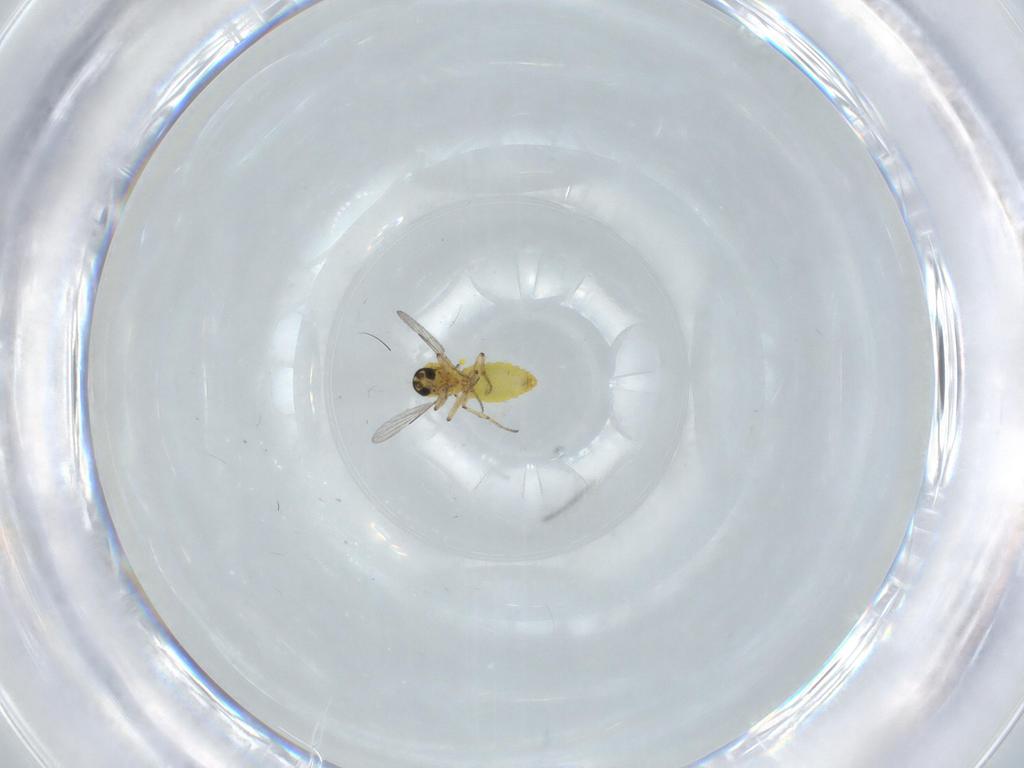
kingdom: Animalia
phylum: Arthropoda
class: Insecta
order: Diptera
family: Ceratopogonidae
